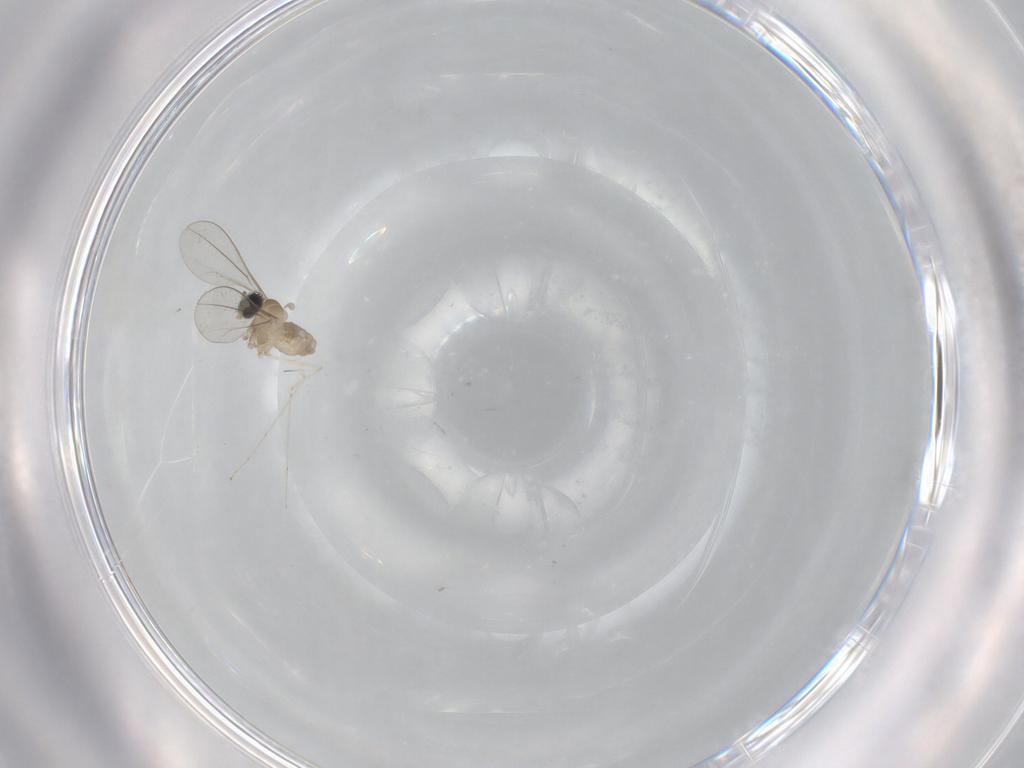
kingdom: Animalia
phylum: Arthropoda
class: Insecta
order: Diptera
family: Cecidomyiidae
